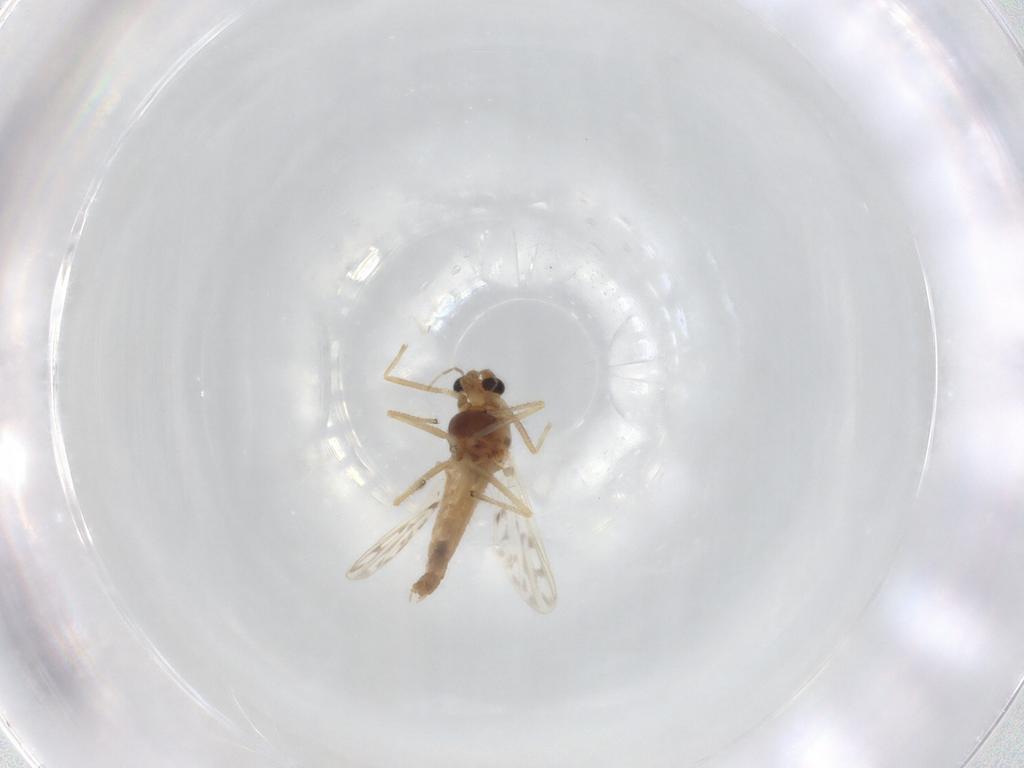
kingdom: Animalia
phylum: Arthropoda
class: Insecta
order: Diptera
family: Chironomidae
